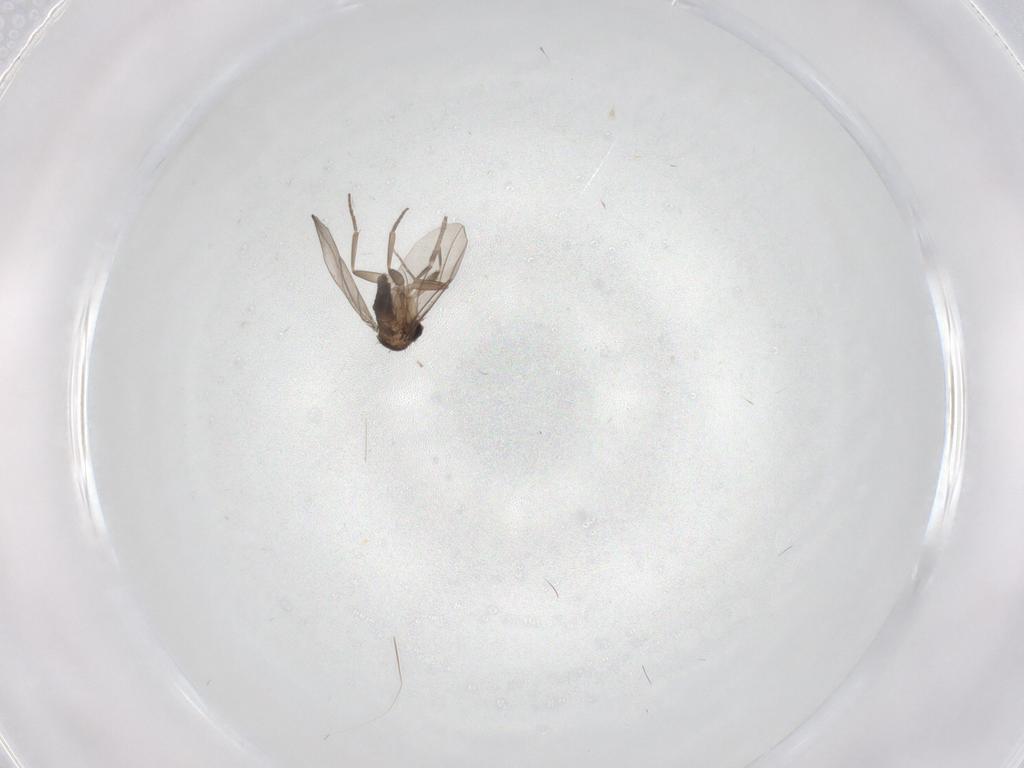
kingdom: Animalia
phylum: Arthropoda
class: Insecta
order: Diptera
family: Phoridae
